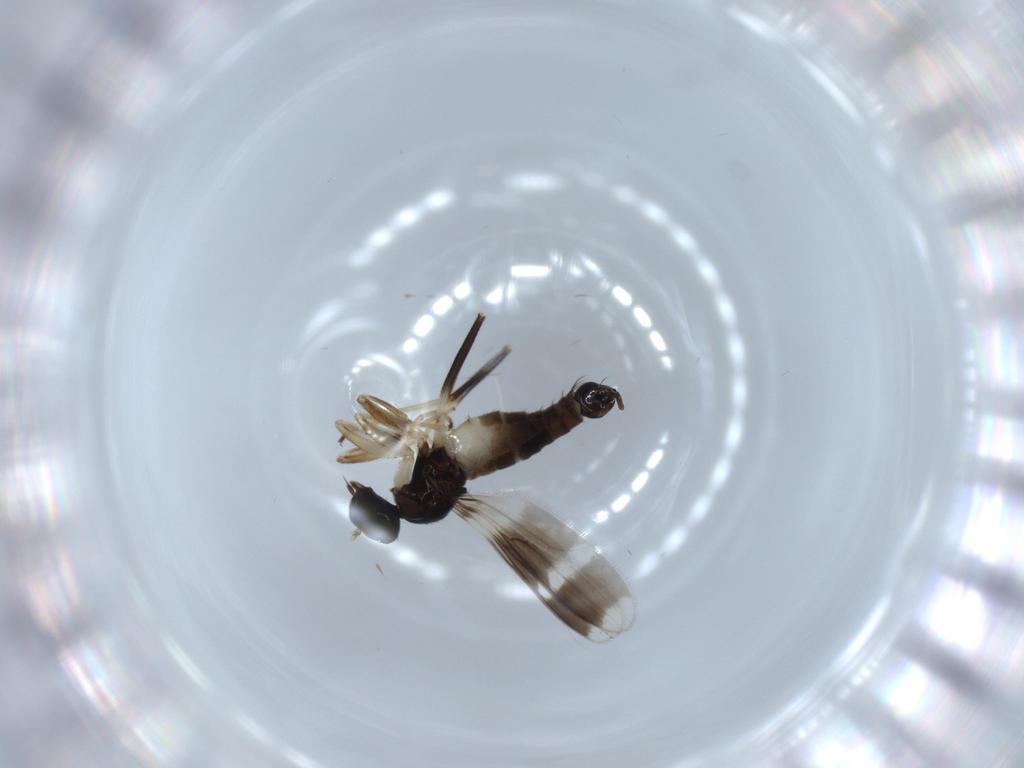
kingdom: Animalia
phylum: Arthropoda
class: Insecta
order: Diptera
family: Hybotidae
